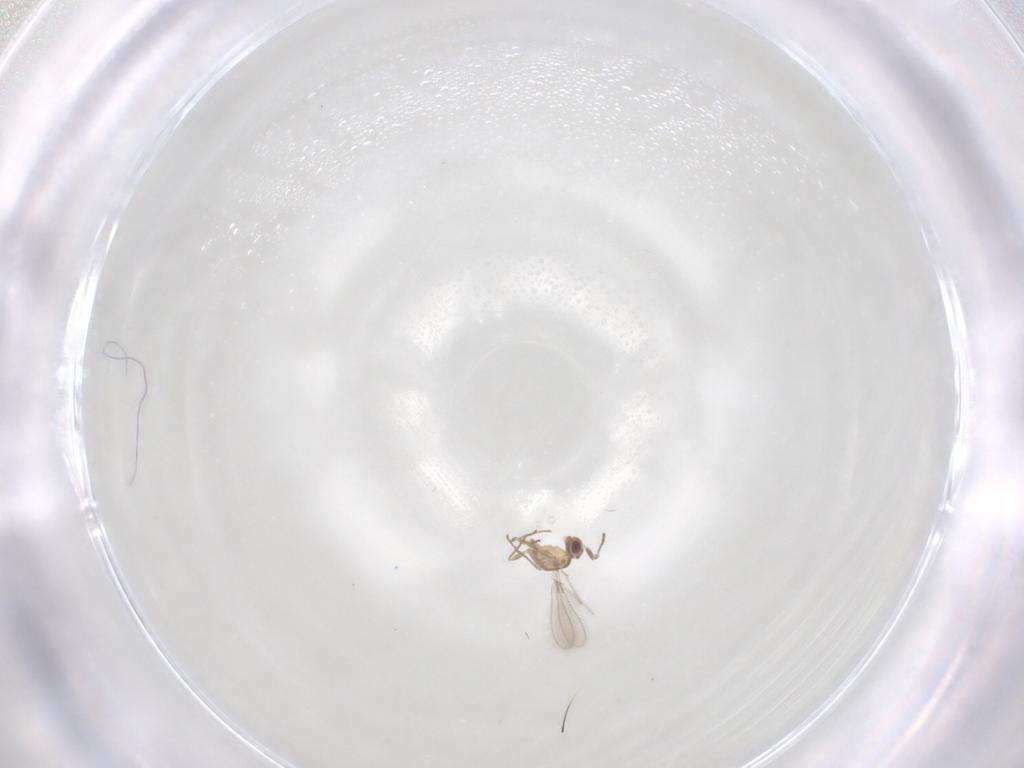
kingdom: Animalia
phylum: Arthropoda
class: Insecta
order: Hymenoptera
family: Mymaridae
